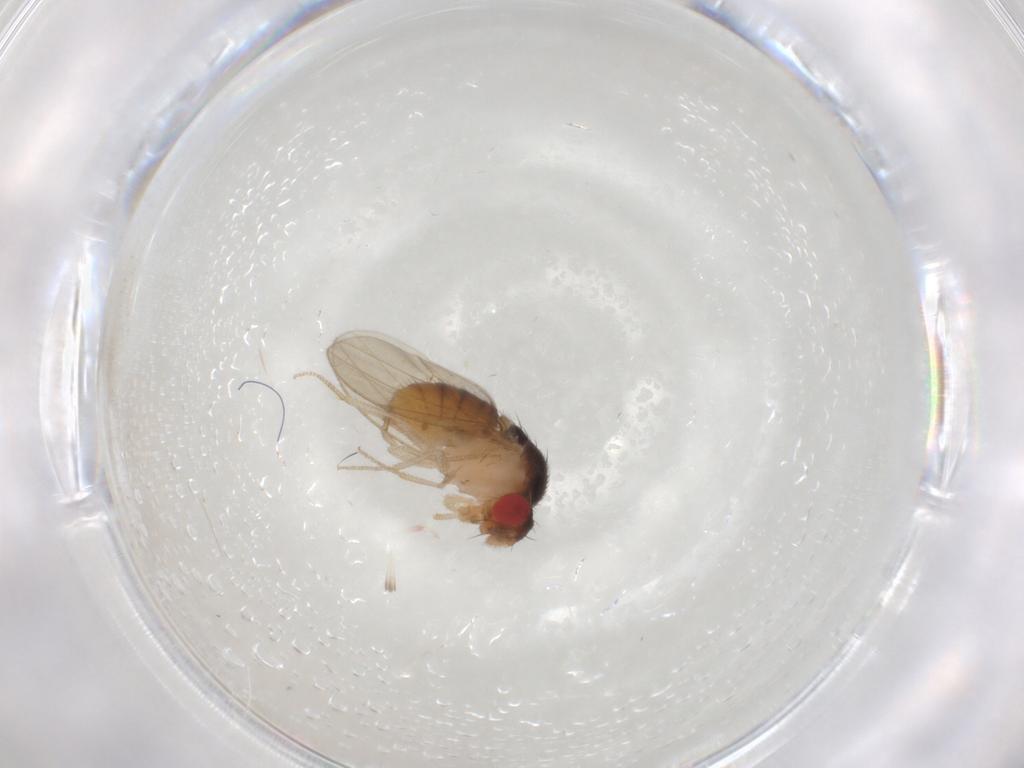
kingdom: Animalia
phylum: Arthropoda
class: Insecta
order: Diptera
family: Drosophilidae
